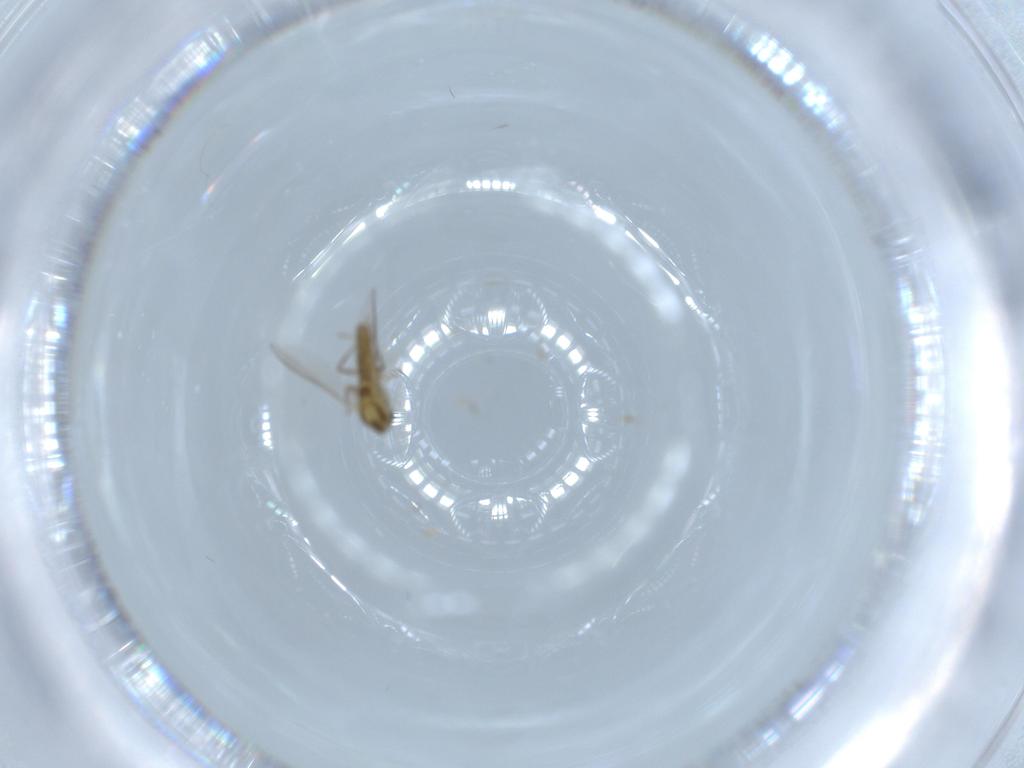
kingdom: Animalia
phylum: Arthropoda
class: Insecta
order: Diptera
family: Chironomidae
